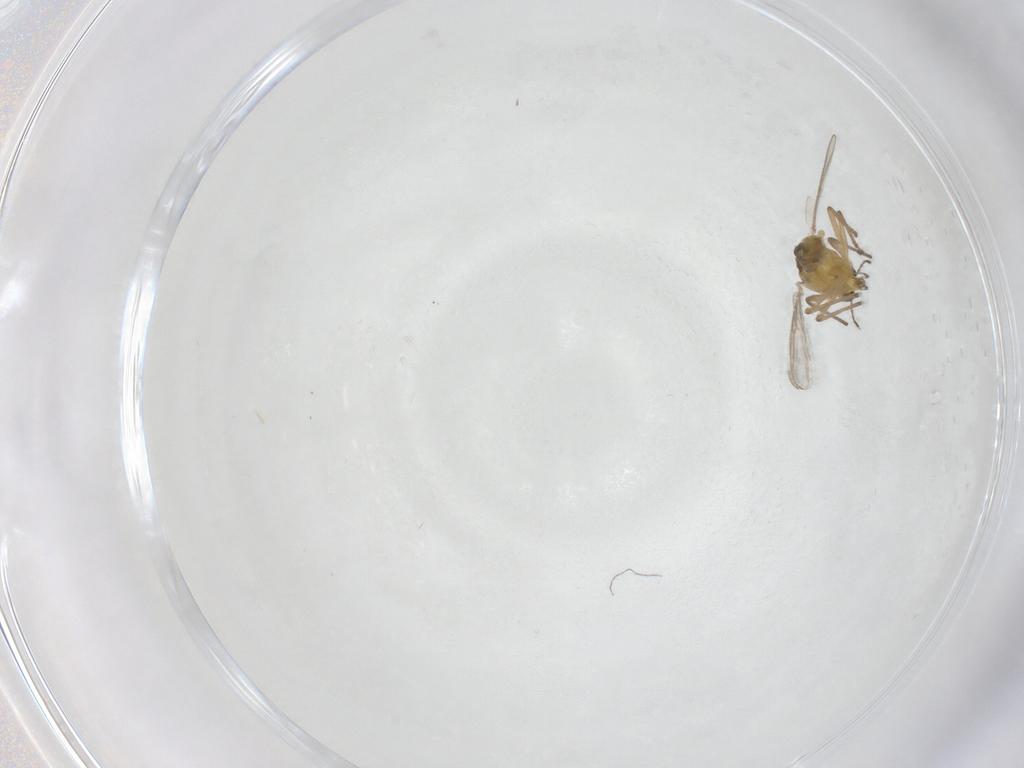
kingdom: Animalia
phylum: Arthropoda
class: Insecta
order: Diptera
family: Chironomidae
